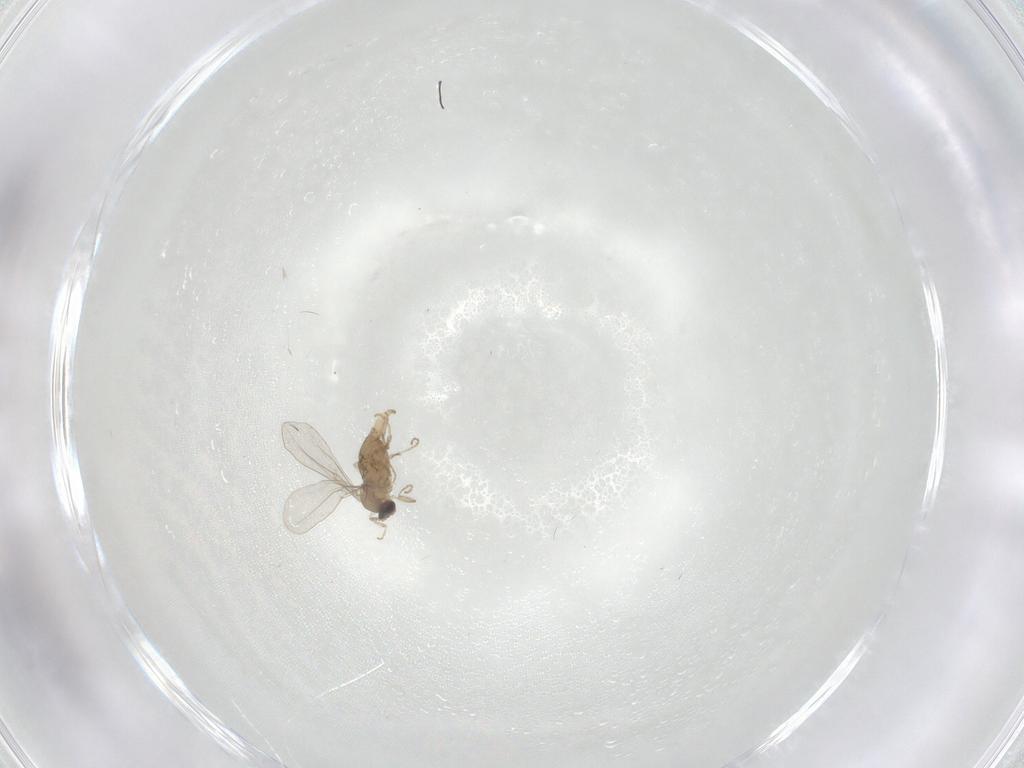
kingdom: Animalia
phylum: Arthropoda
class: Insecta
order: Diptera
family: Cecidomyiidae
